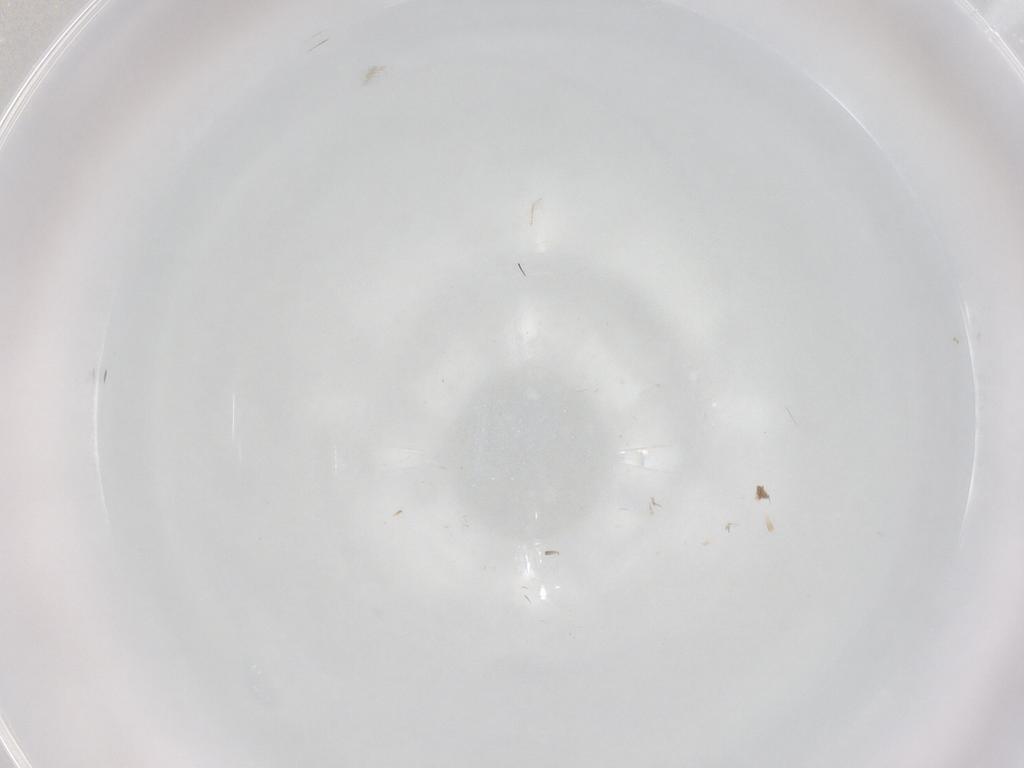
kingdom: Animalia
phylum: Arthropoda
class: Insecta
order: Diptera
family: Cecidomyiidae
